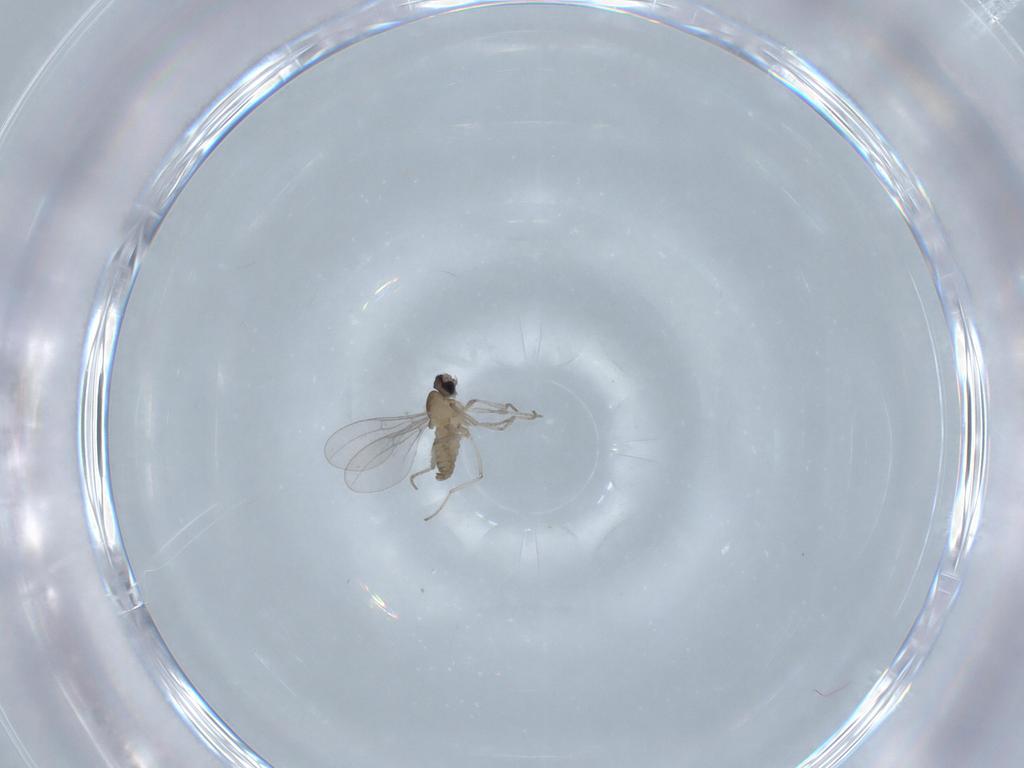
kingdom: Animalia
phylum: Arthropoda
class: Insecta
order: Diptera
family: Cecidomyiidae
